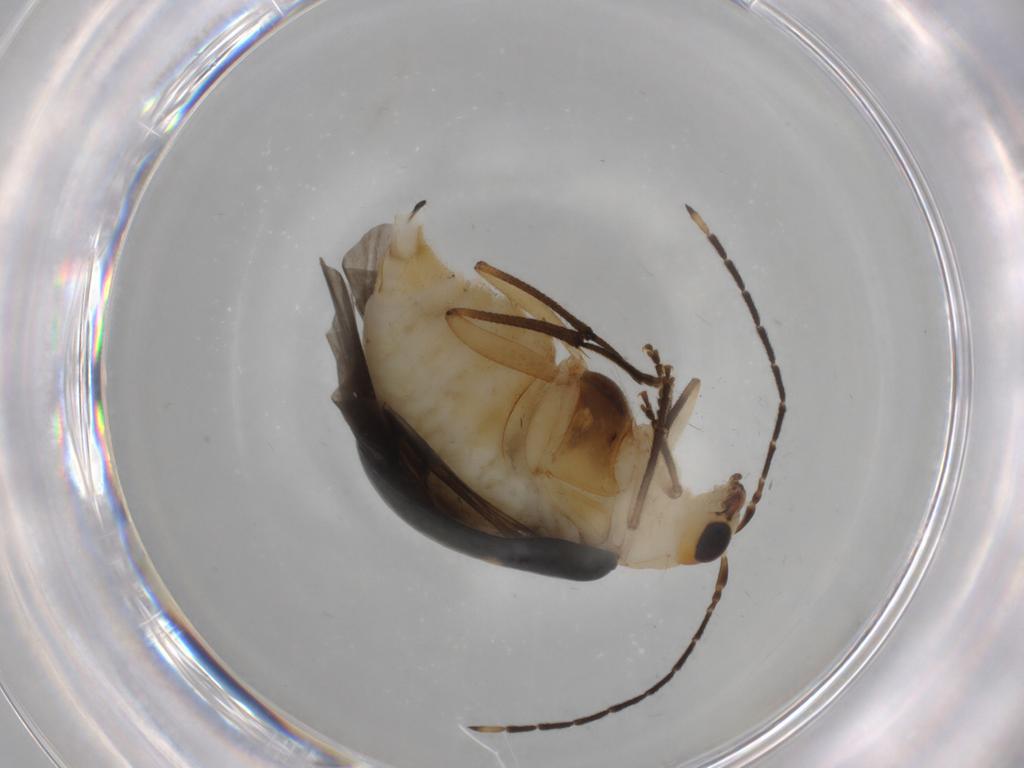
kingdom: Animalia
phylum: Arthropoda
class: Insecta
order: Coleoptera
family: Chrysomelidae
